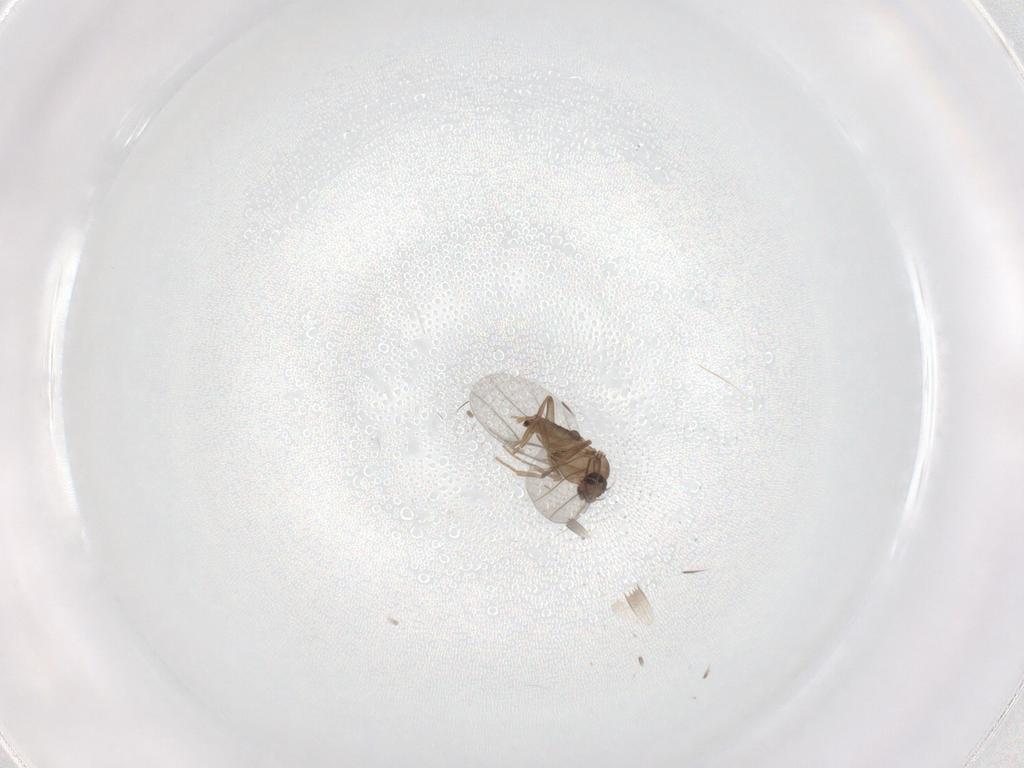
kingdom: Animalia
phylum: Arthropoda
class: Insecta
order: Diptera
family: Cecidomyiidae
